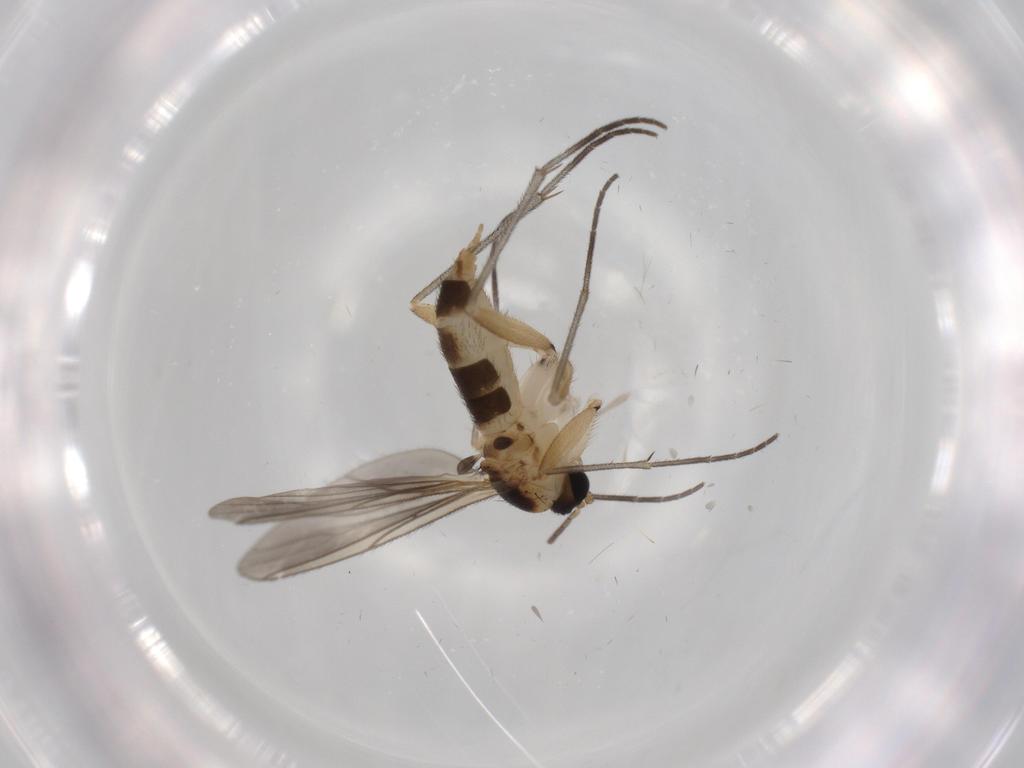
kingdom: Animalia
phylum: Arthropoda
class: Insecta
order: Diptera
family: Sciaridae
